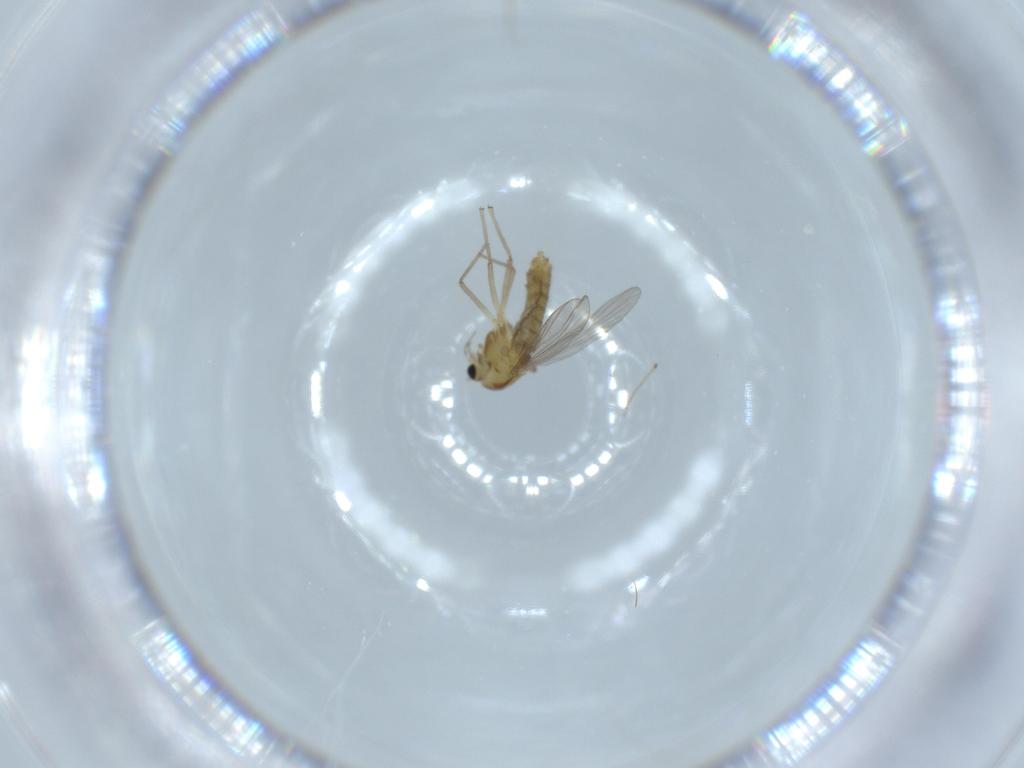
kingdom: Animalia
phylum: Arthropoda
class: Insecta
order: Diptera
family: Cecidomyiidae
